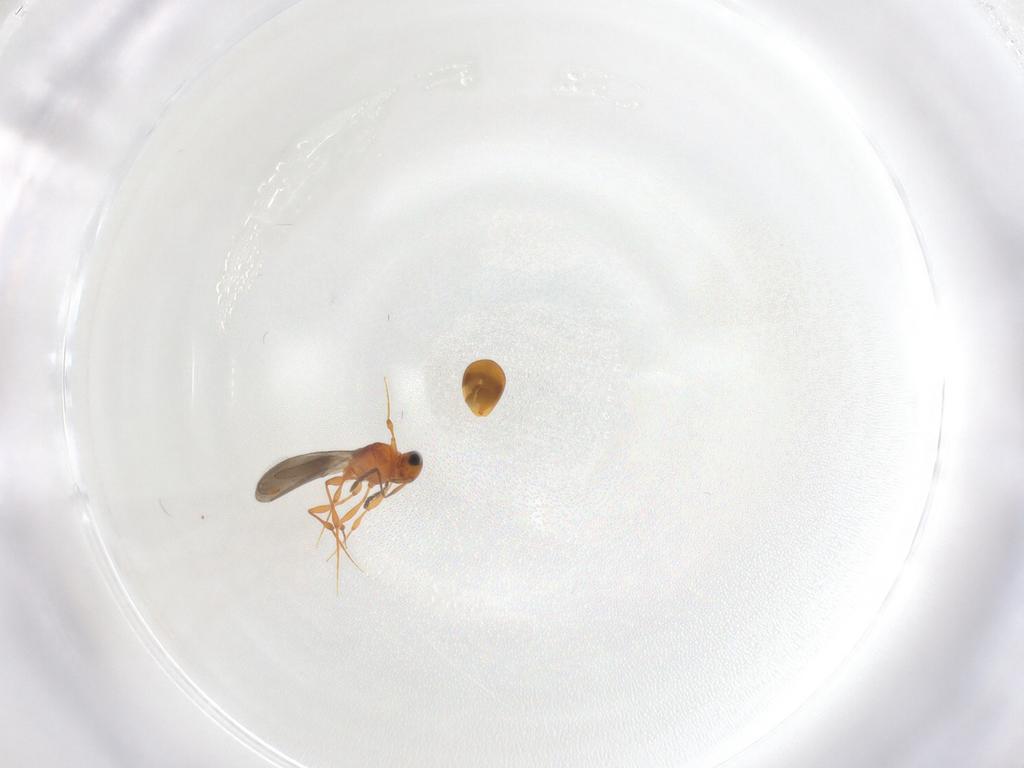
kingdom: Animalia
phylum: Arthropoda
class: Insecta
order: Hymenoptera
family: Platygastridae
